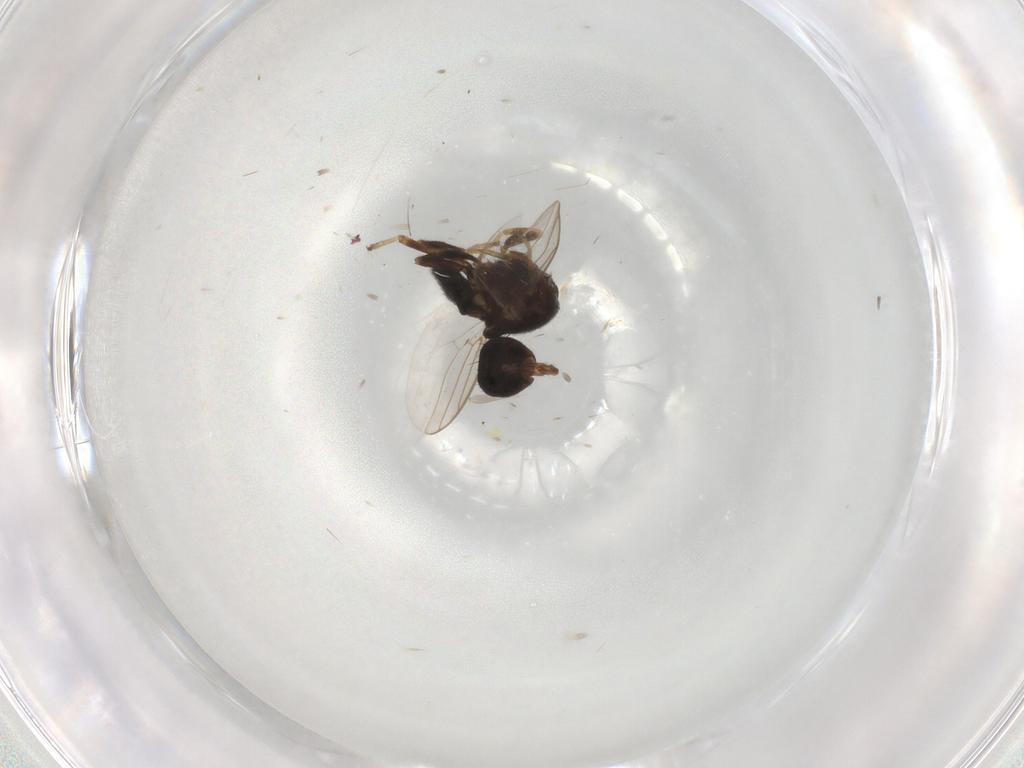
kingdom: Animalia
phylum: Arthropoda
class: Insecta
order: Diptera
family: Chloropidae
